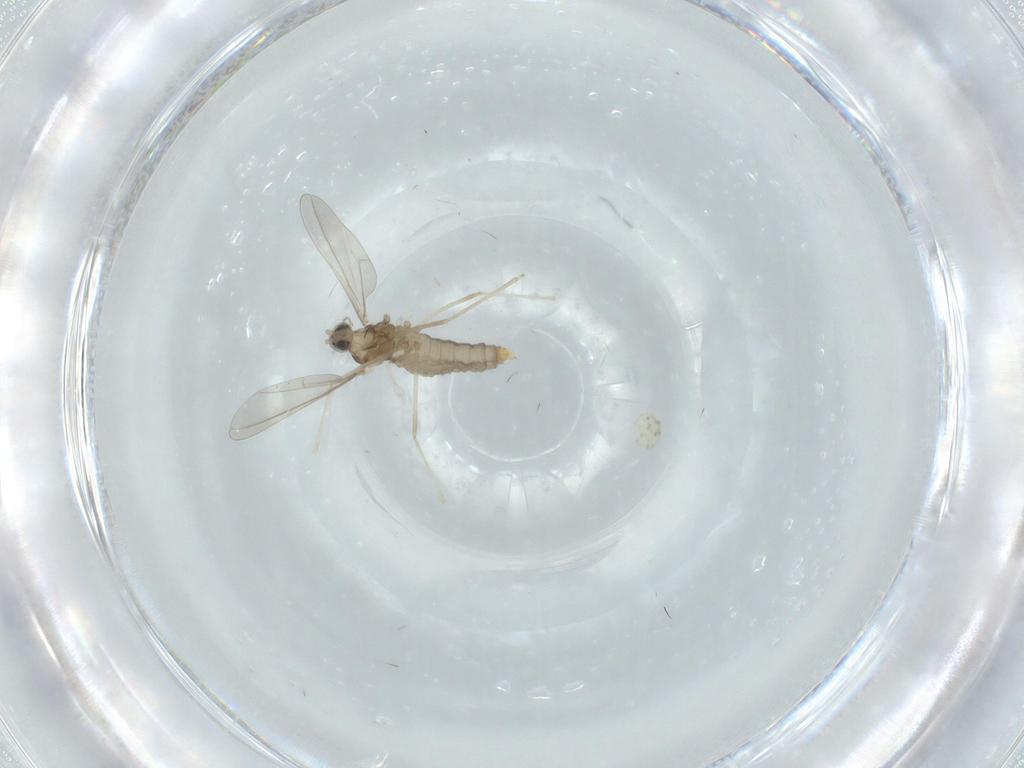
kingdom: Animalia
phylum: Arthropoda
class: Insecta
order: Diptera
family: Cecidomyiidae
